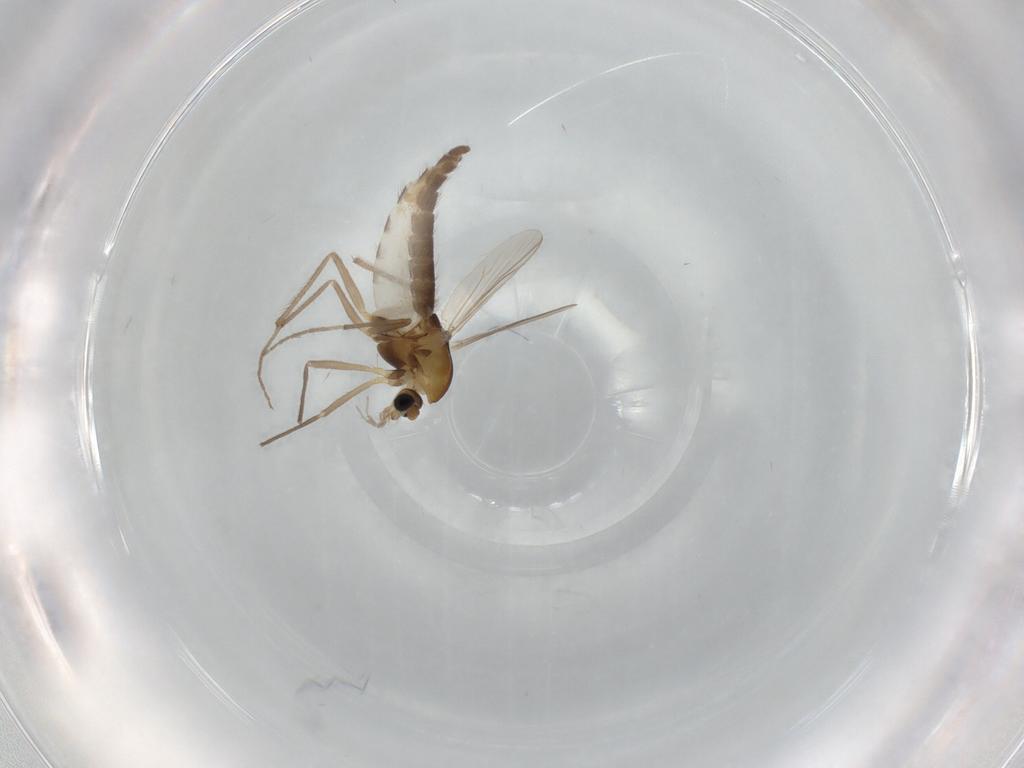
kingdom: Animalia
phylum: Arthropoda
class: Insecta
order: Diptera
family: Chironomidae
